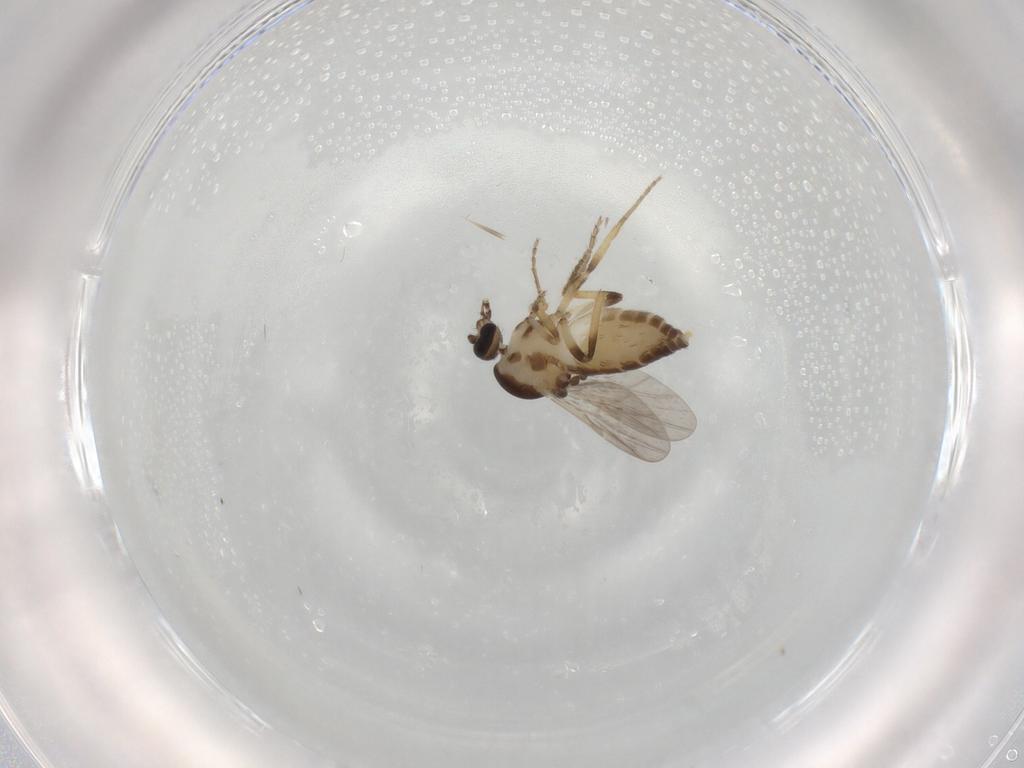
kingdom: Animalia
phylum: Arthropoda
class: Insecta
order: Diptera
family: Ceratopogonidae
